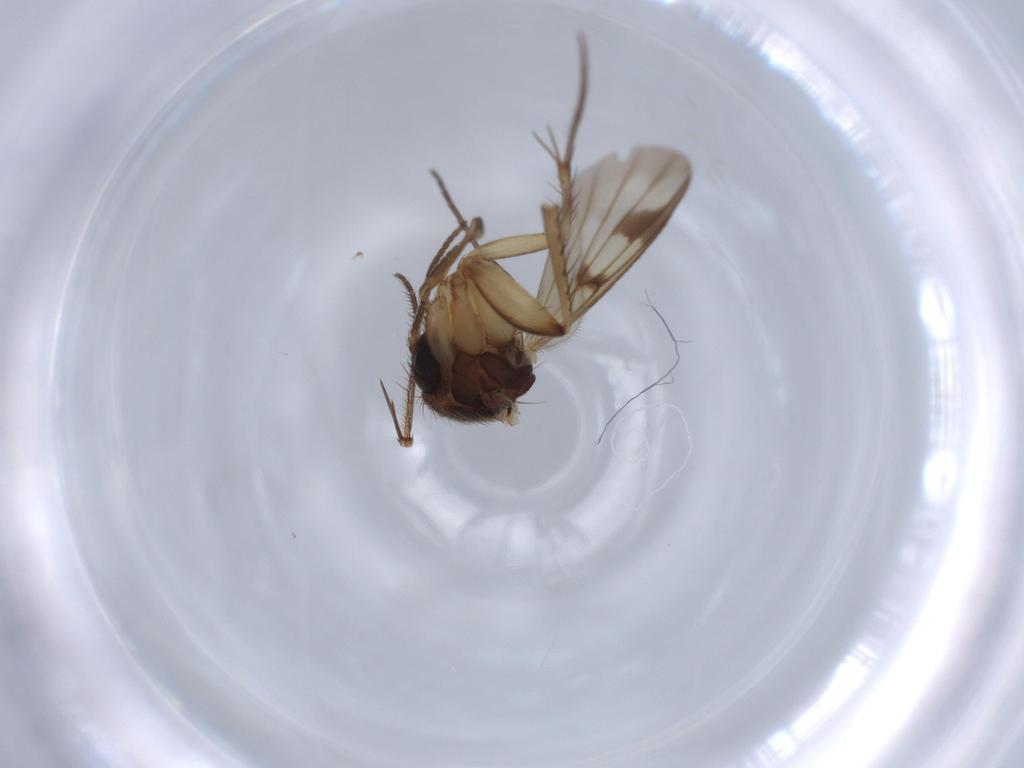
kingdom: Animalia
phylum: Arthropoda
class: Insecta
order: Diptera
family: Mycetophilidae
